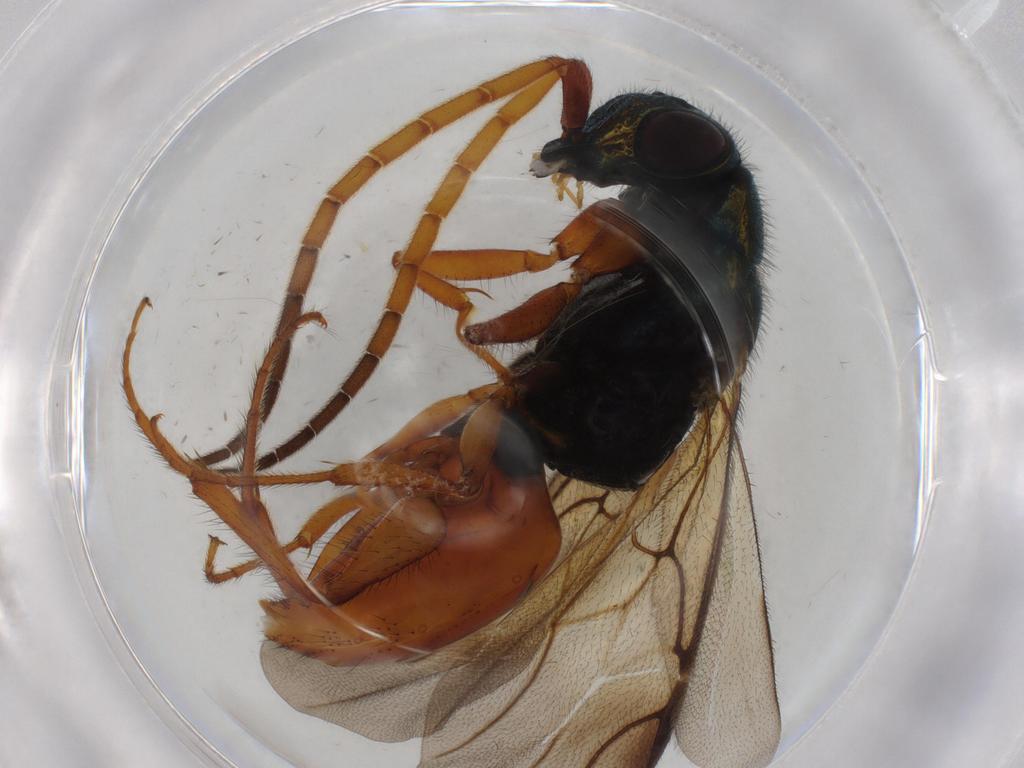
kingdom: Animalia
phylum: Arthropoda
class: Insecta
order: Hymenoptera
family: Chrysididae
